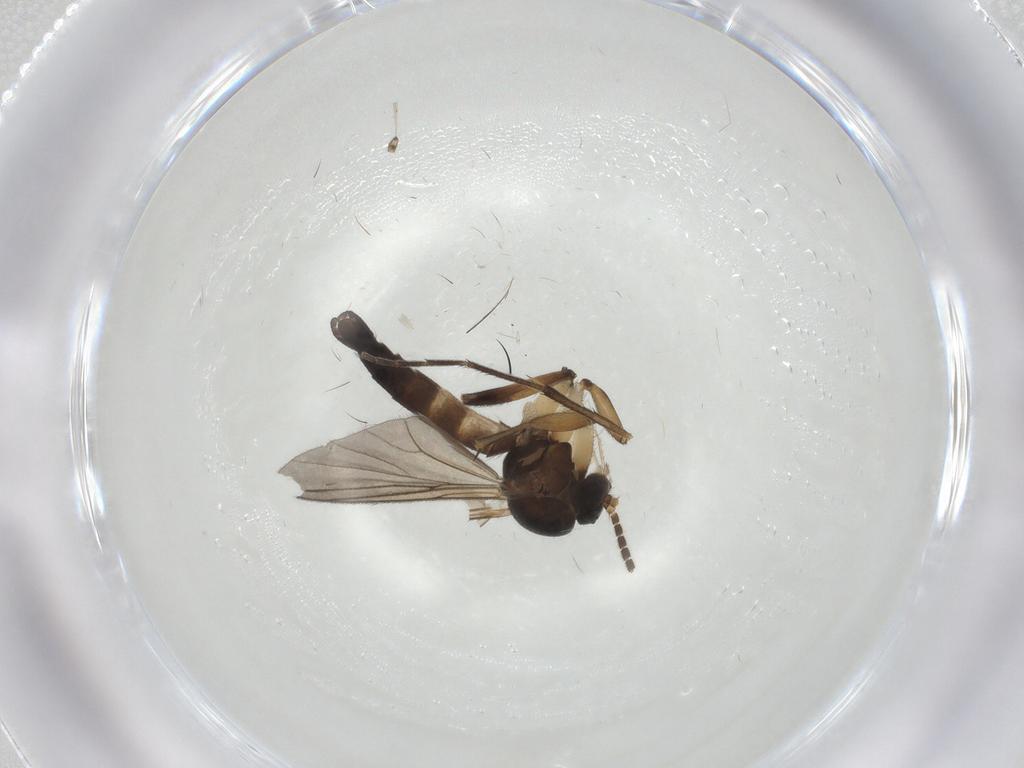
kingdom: Animalia
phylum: Arthropoda
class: Insecta
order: Diptera
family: Mycetophilidae
